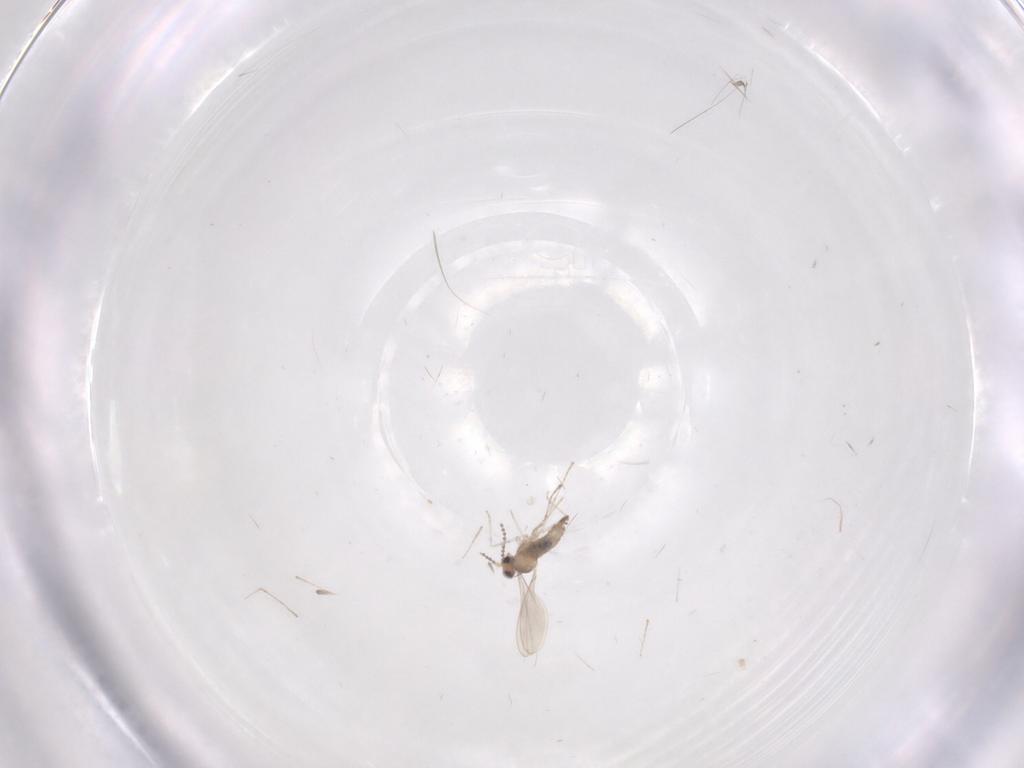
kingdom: Animalia
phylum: Arthropoda
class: Insecta
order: Diptera
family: Cecidomyiidae
